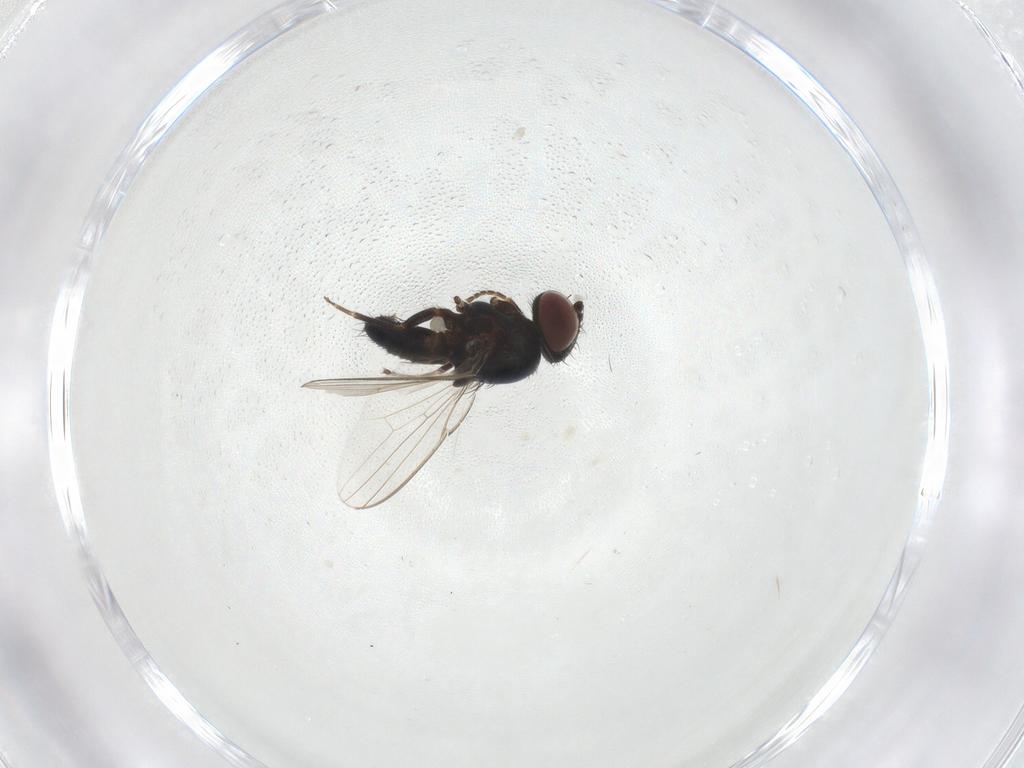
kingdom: Animalia
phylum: Arthropoda
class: Insecta
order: Diptera
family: Milichiidae
